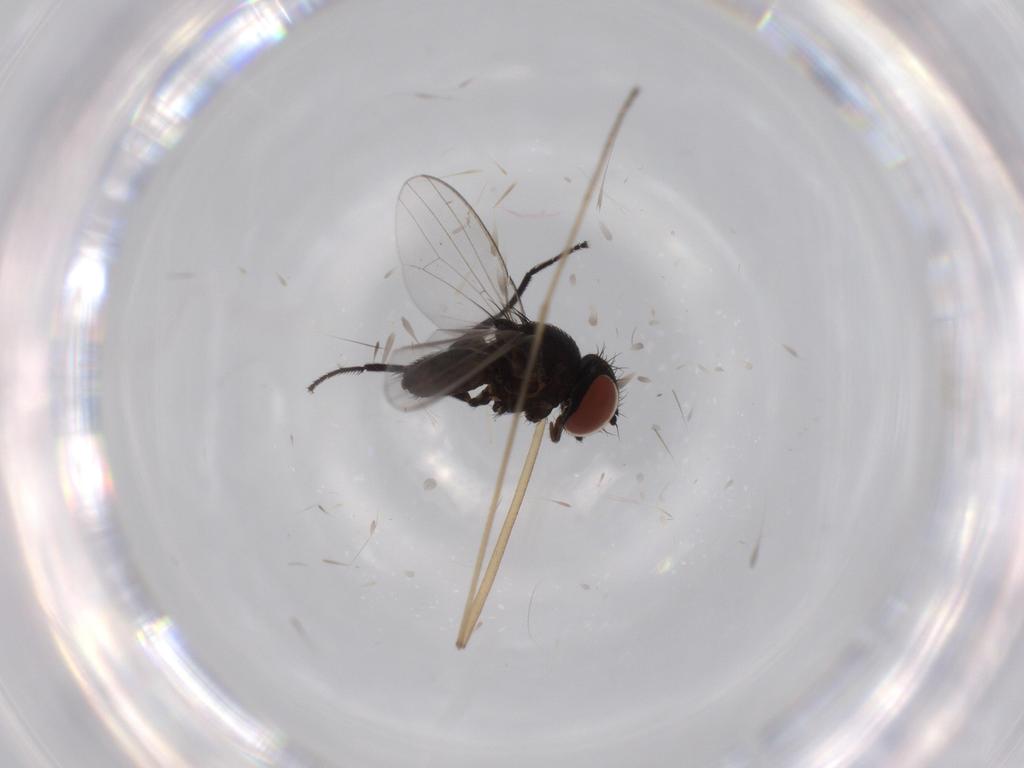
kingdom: Animalia
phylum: Arthropoda
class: Insecta
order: Diptera
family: Milichiidae
